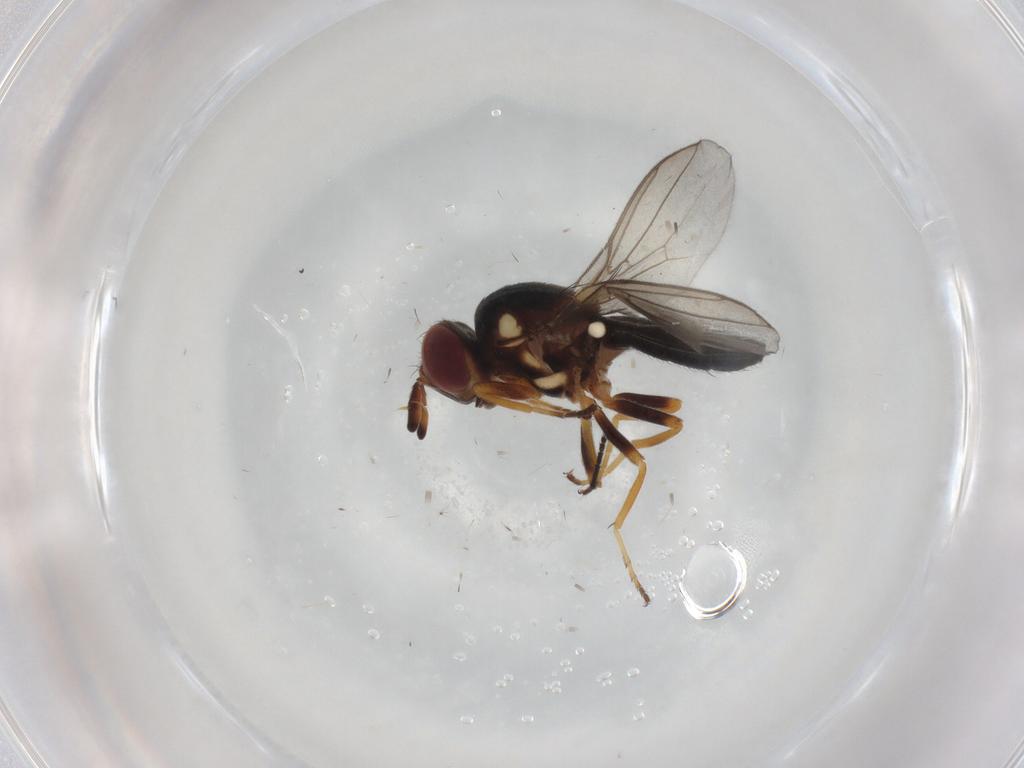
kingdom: Animalia
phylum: Arthropoda
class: Insecta
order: Diptera
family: Chloropidae
